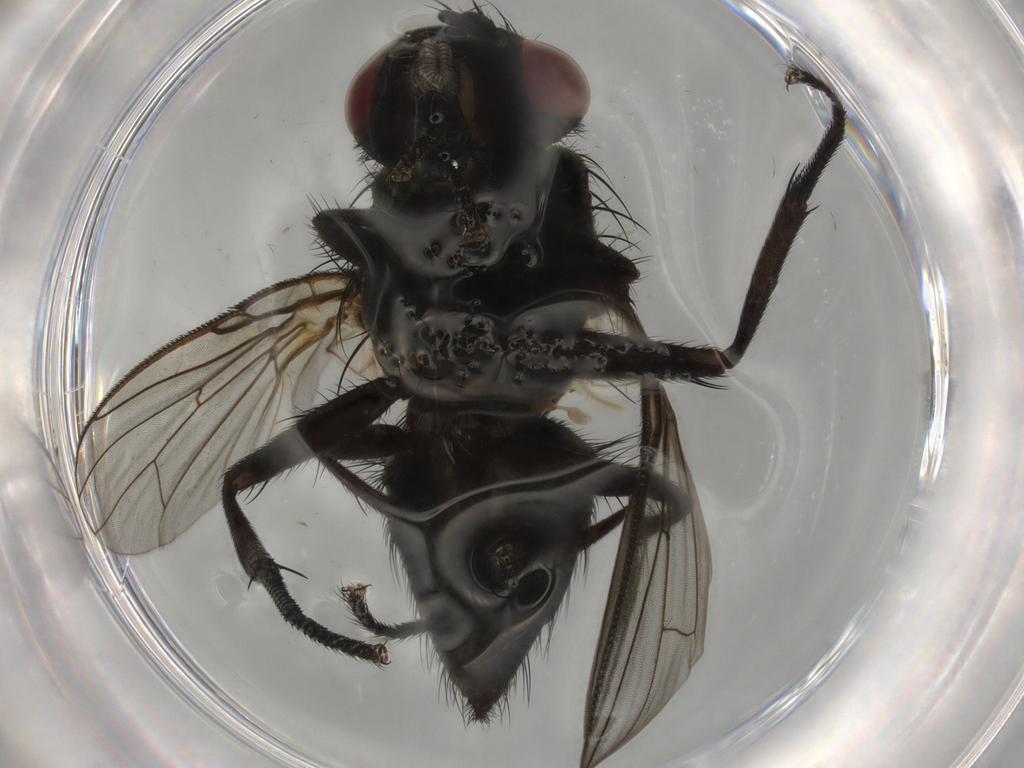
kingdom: Animalia
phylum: Arthropoda
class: Insecta
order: Diptera
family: Muscidae
